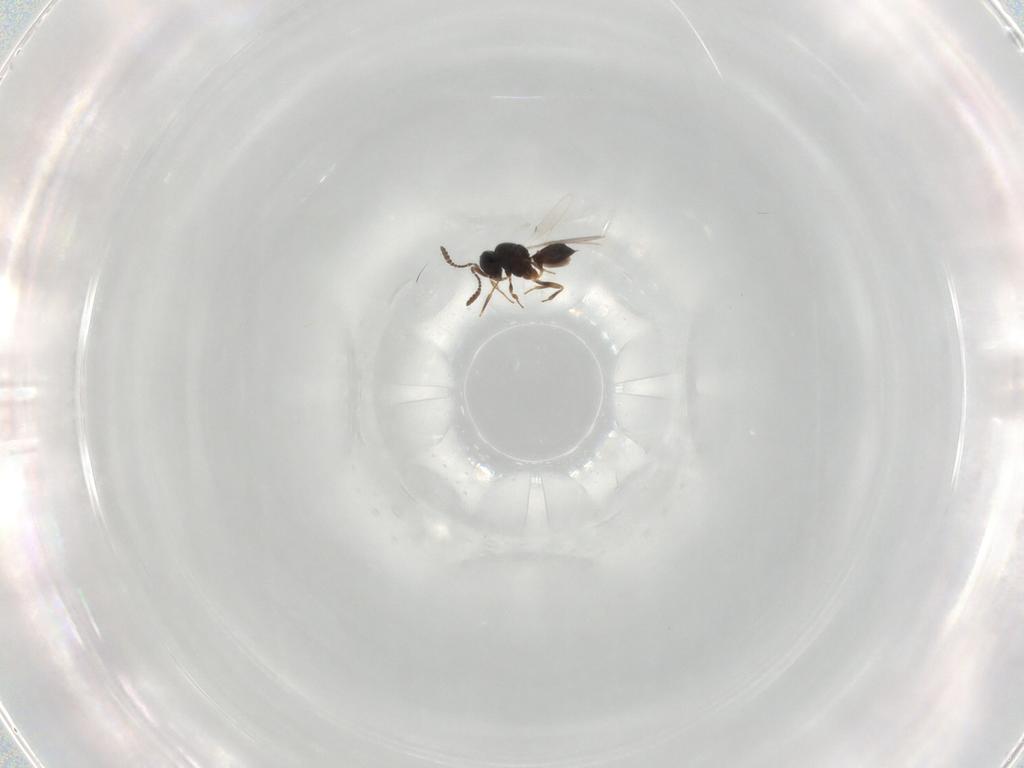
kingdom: Animalia
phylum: Arthropoda
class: Insecta
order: Hymenoptera
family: Scelionidae
